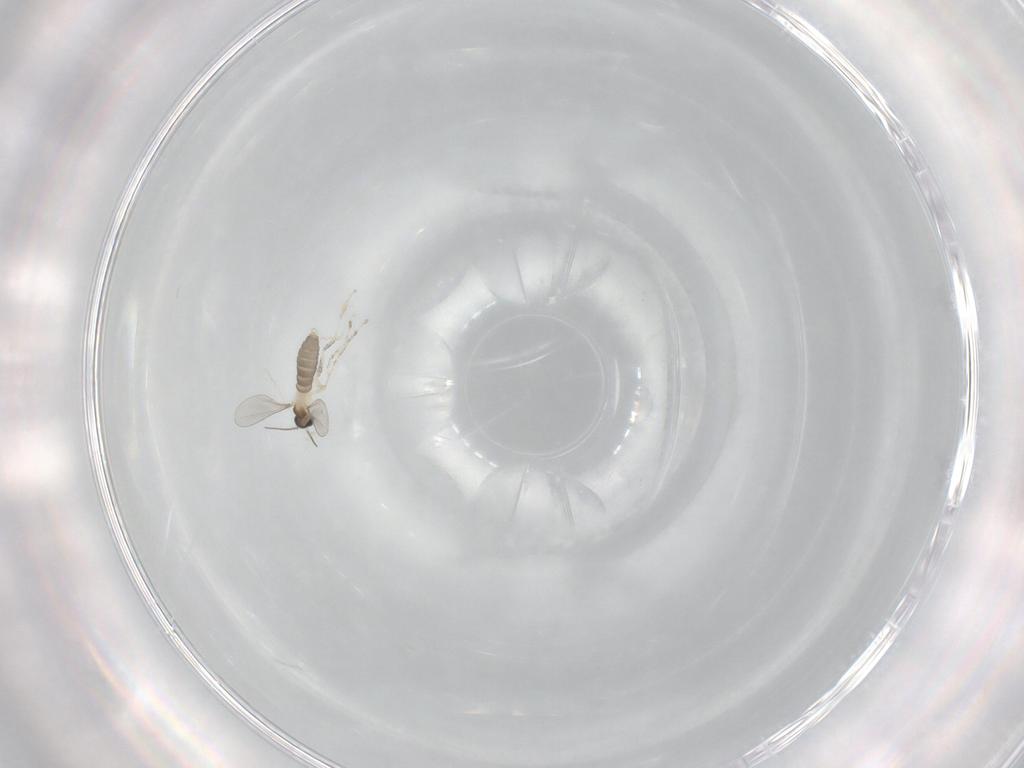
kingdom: Animalia
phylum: Arthropoda
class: Insecta
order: Diptera
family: Cecidomyiidae
